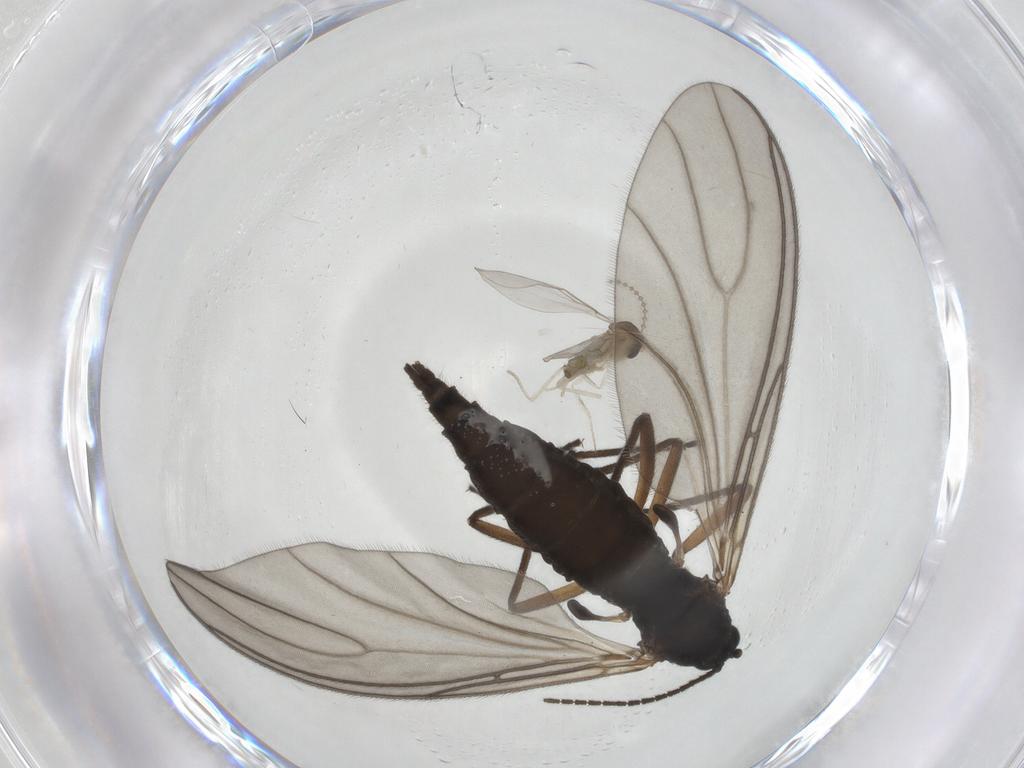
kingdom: Animalia
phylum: Arthropoda
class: Insecta
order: Diptera
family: Sciaridae
